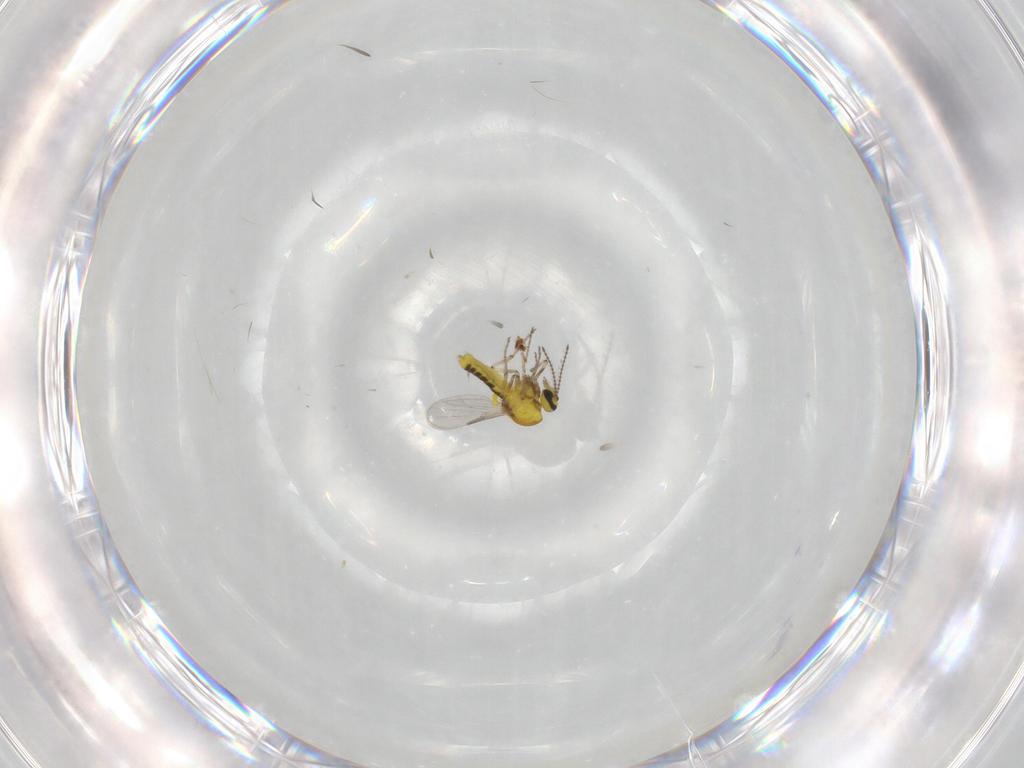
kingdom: Animalia
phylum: Arthropoda
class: Insecta
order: Diptera
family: Ceratopogonidae
